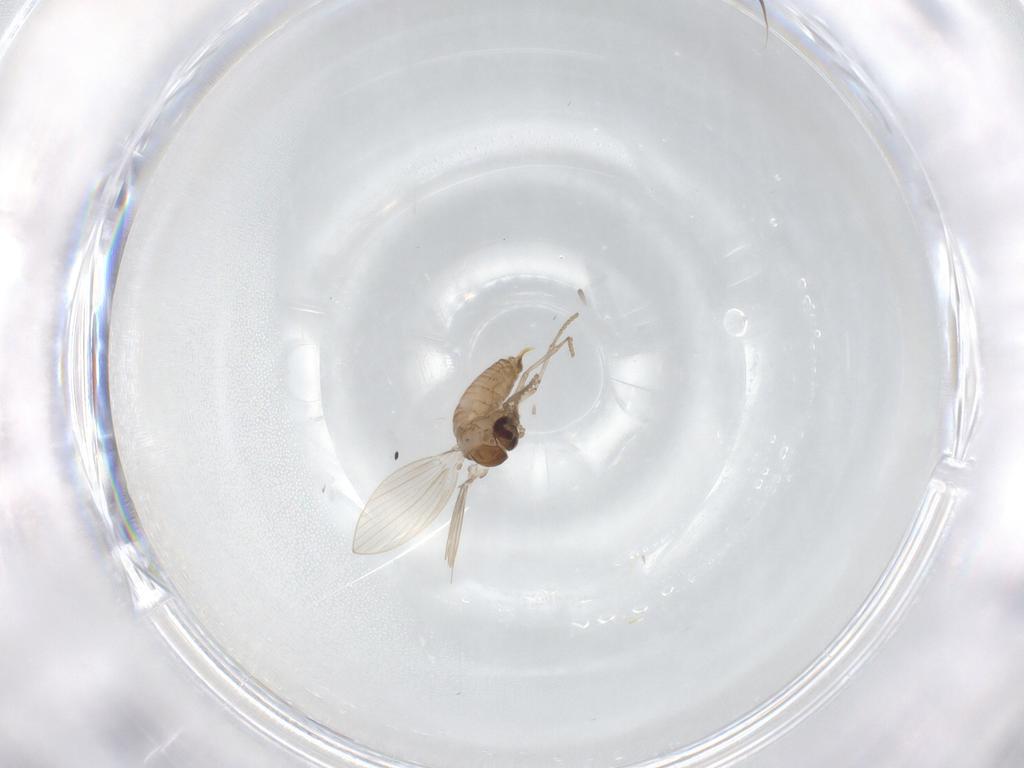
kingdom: Animalia
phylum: Arthropoda
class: Insecta
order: Diptera
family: Psychodidae
